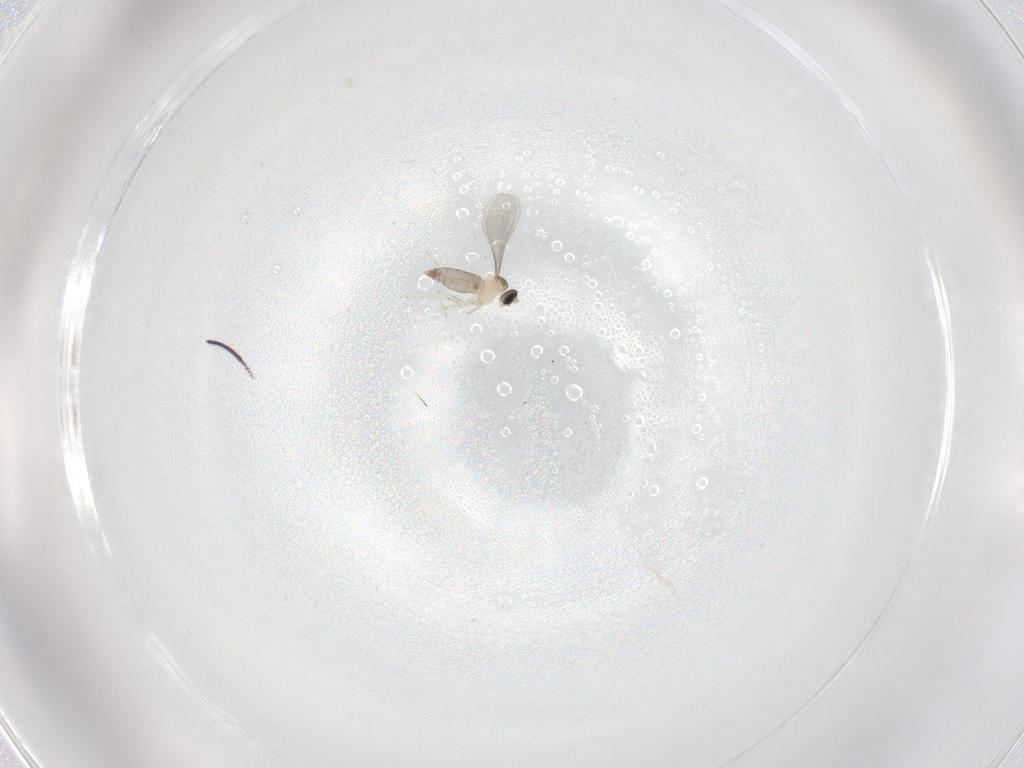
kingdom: Animalia
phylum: Arthropoda
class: Insecta
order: Diptera
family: Cecidomyiidae
